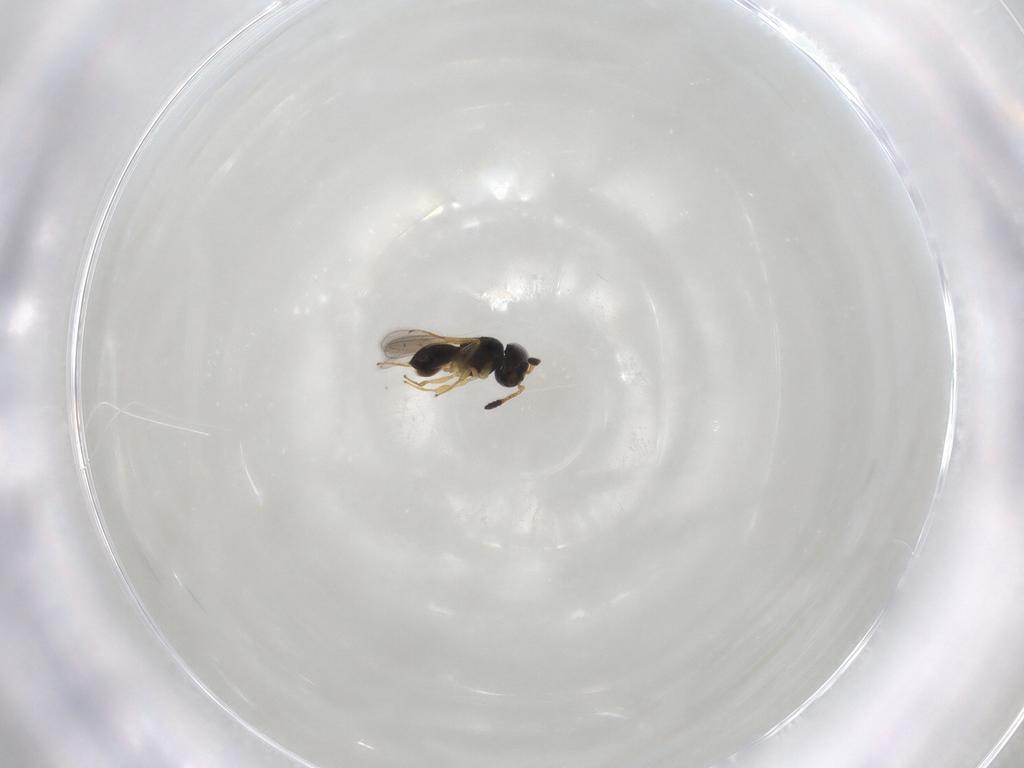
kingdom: Animalia
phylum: Arthropoda
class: Insecta
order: Hymenoptera
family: Scelionidae
